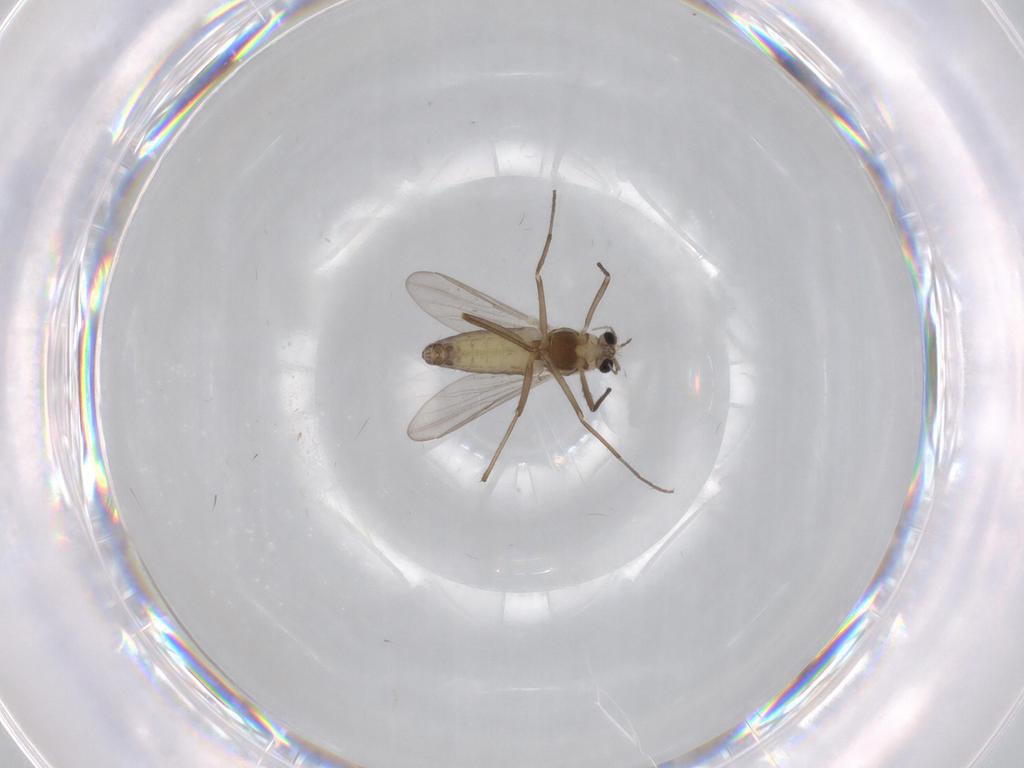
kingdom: Animalia
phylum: Arthropoda
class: Insecta
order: Diptera
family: Chironomidae
